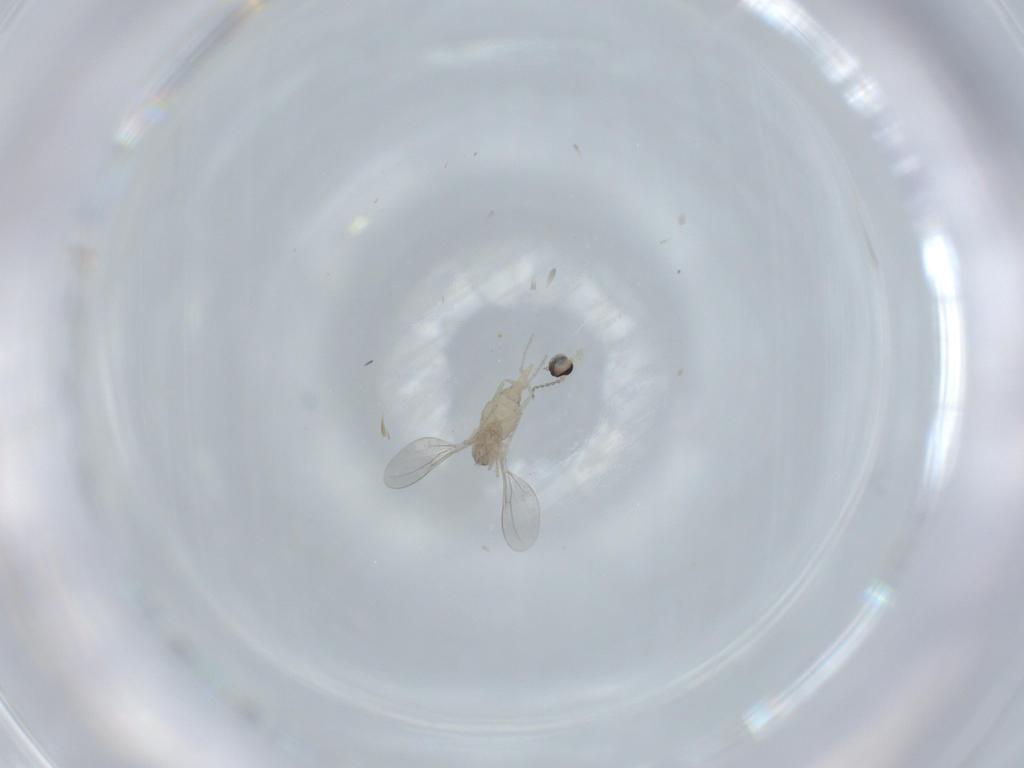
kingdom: Animalia
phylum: Arthropoda
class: Insecta
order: Diptera
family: Cecidomyiidae
